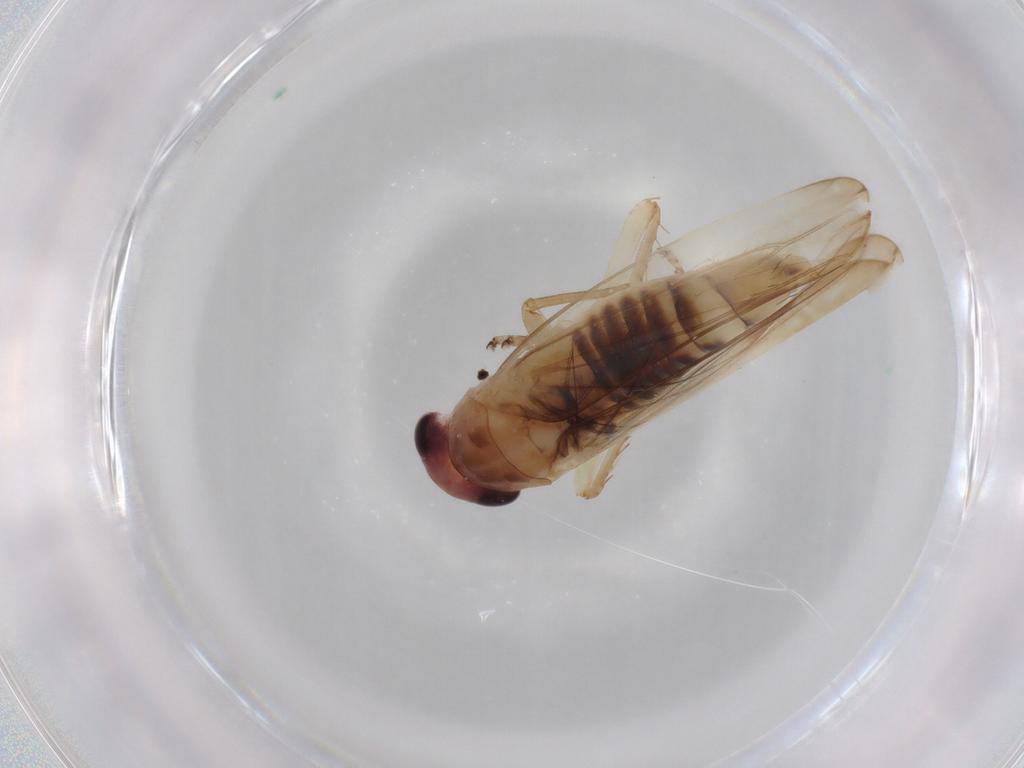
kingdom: Animalia
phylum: Arthropoda
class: Insecta
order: Hemiptera
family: Cicadellidae
